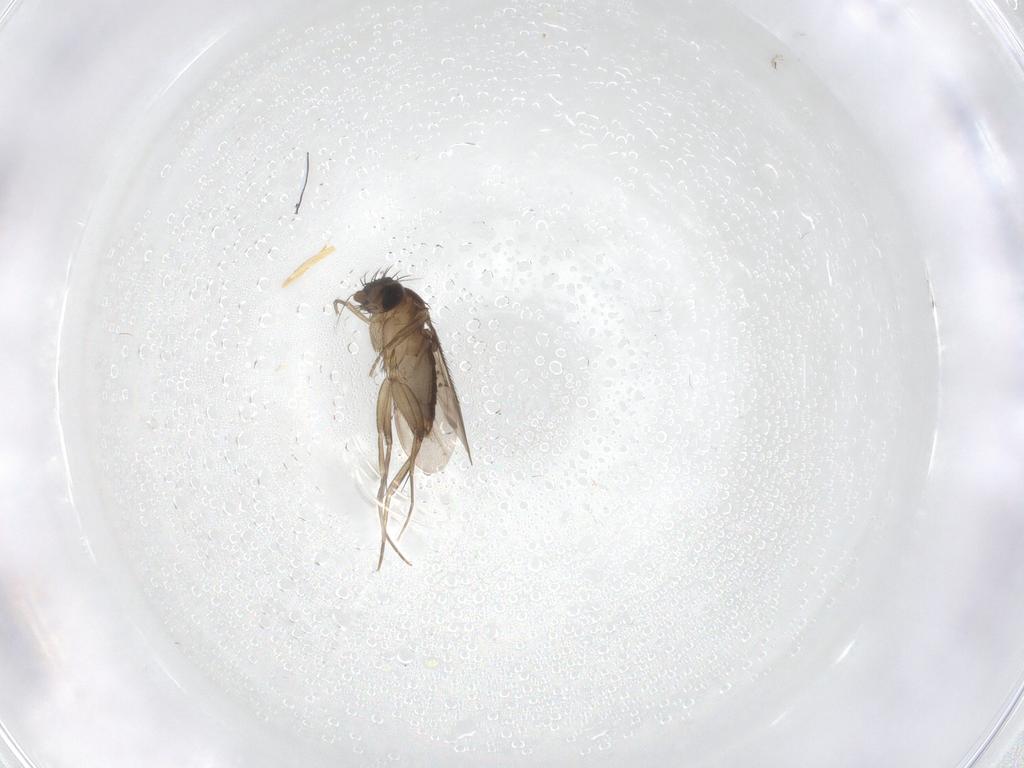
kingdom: Animalia
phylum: Arthropoda
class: Insecta
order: Diptera
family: Phoridae
